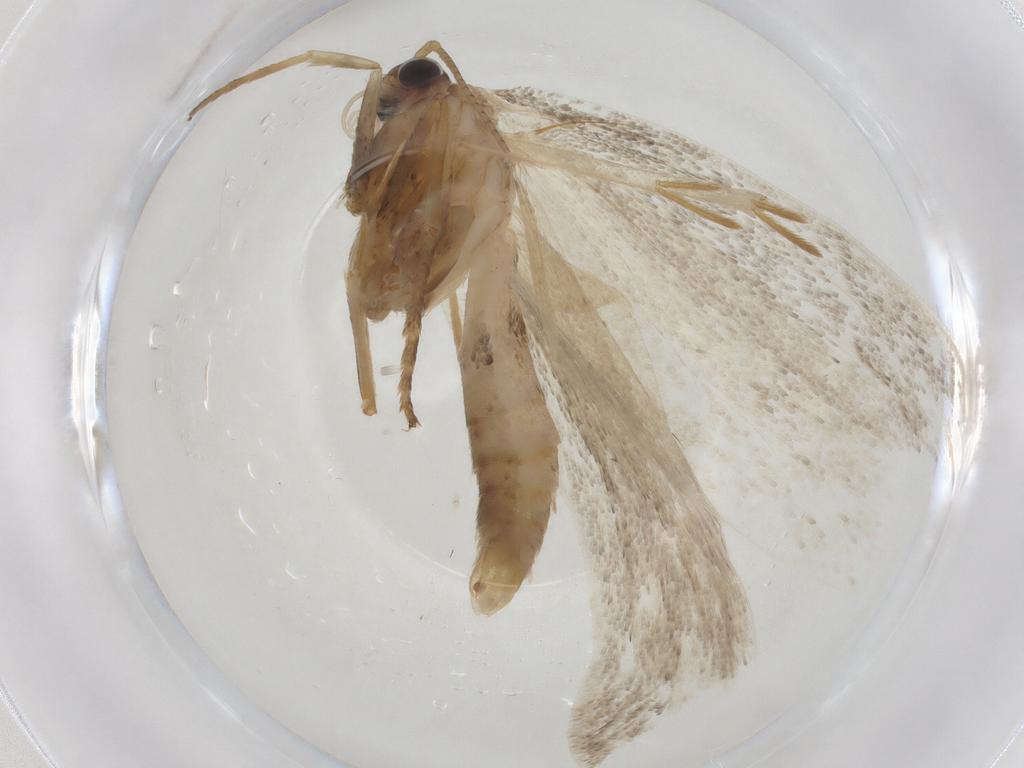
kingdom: Animalia
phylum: Arthropoda
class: Insecta
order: Lepidoptera
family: Depressariidae
